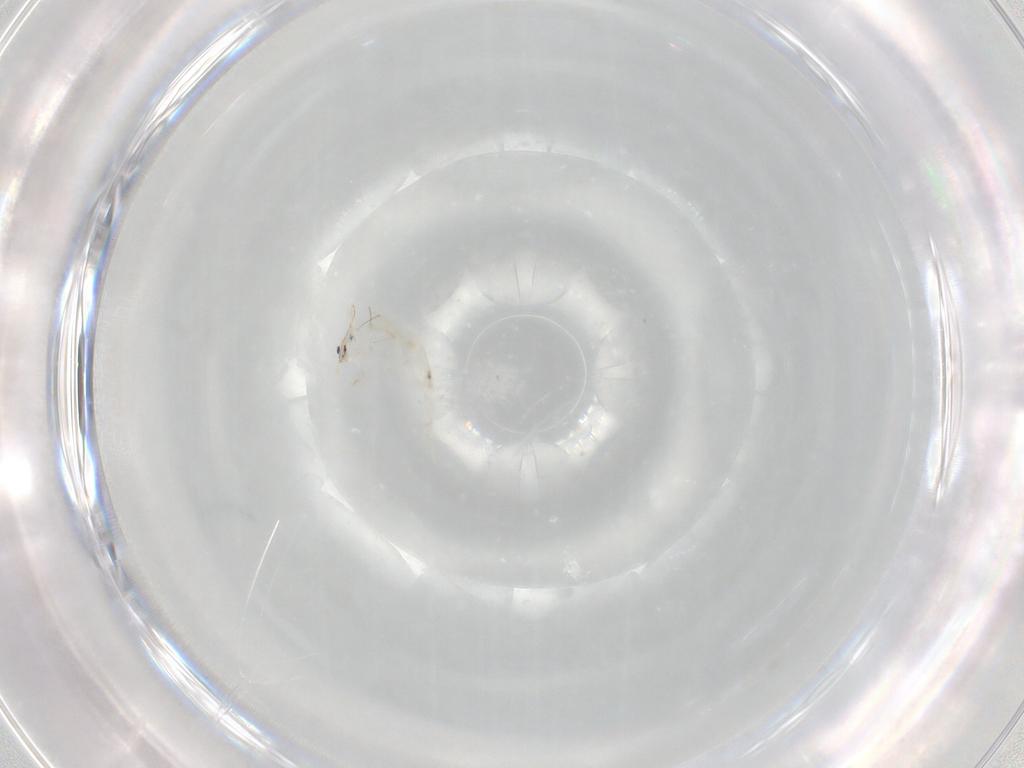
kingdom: Animalia
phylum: Arthropoda
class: Collembola
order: Entomobryomorpha
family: Entomobryidae
